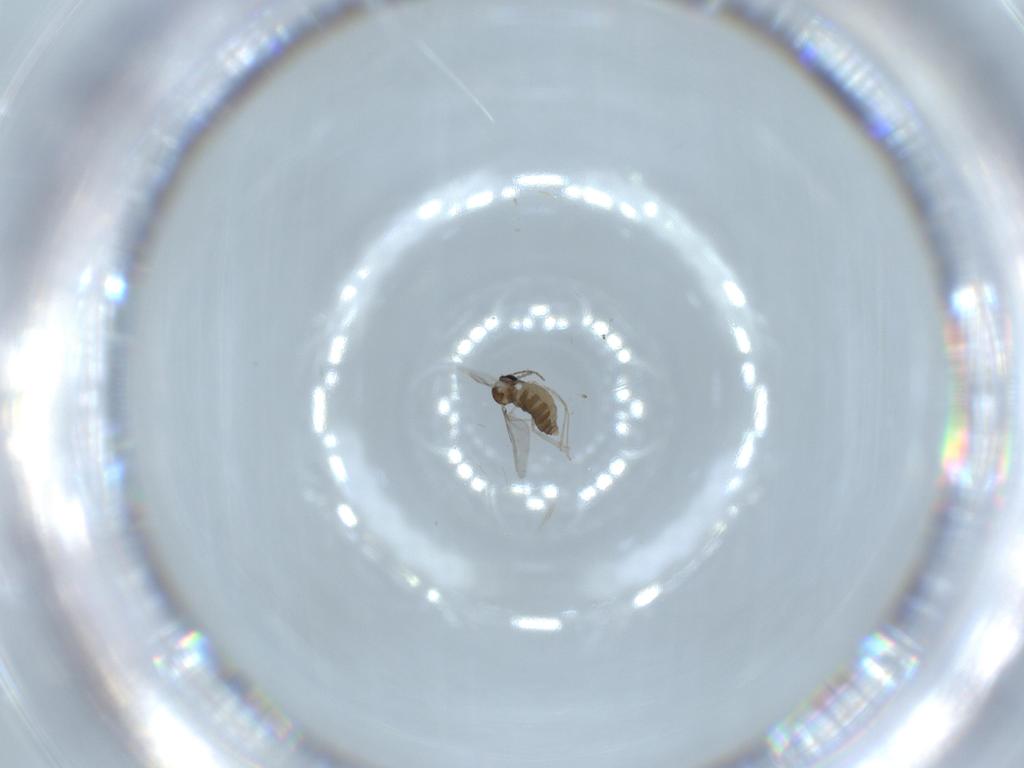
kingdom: Animalia
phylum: Arthropoda
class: Insecta
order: Diptera
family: Cecidomyiidae
